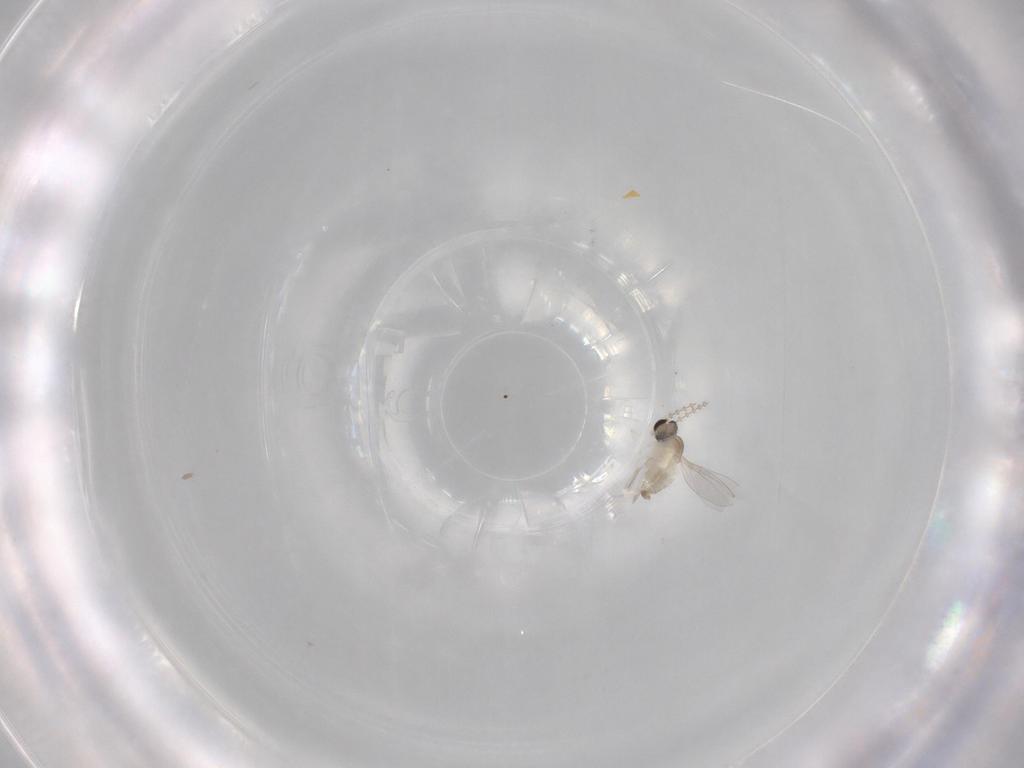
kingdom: Animalia
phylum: Arthropoda
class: Insecta
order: Diptera
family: Cecidomyiidae
